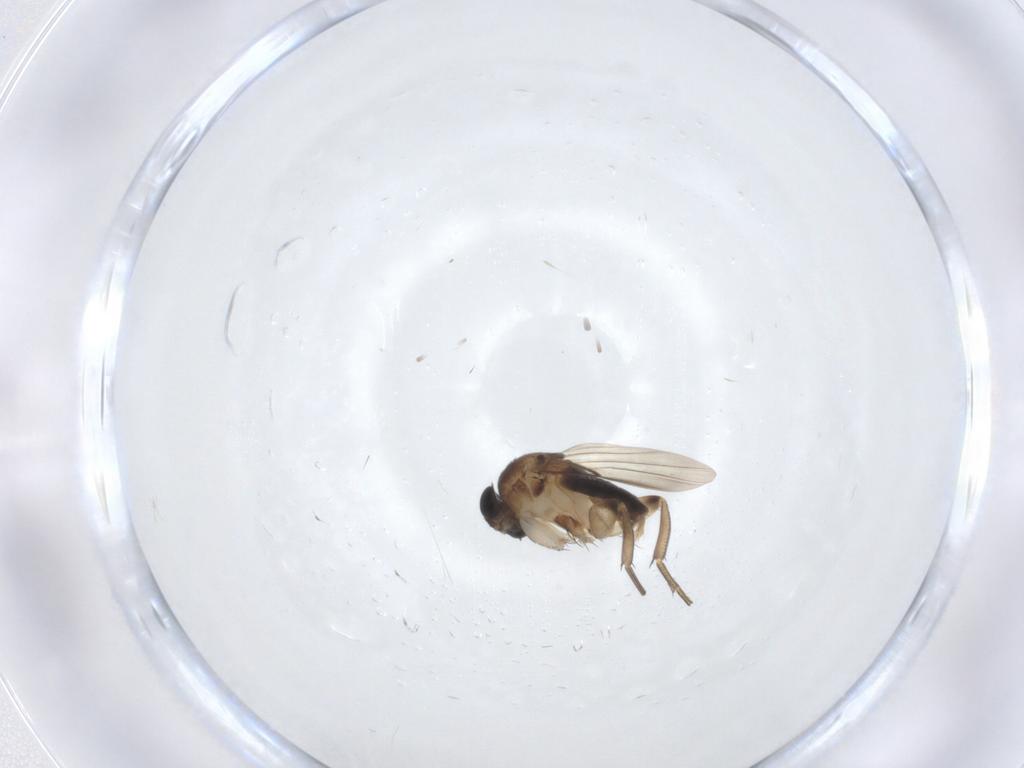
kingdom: Animalia
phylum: Arthropoda
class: Insecta
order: Diptera
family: Phoridae
